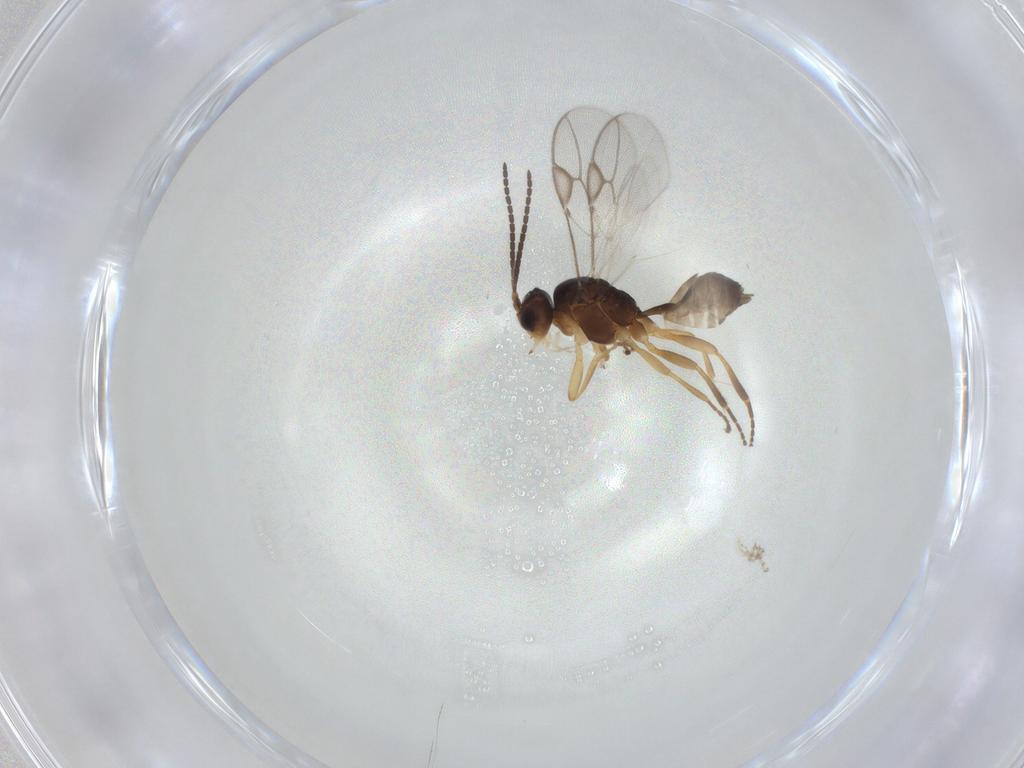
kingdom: Animalia
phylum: Arthropoda
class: Insecta
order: Hymenoptera
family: Braconidae
